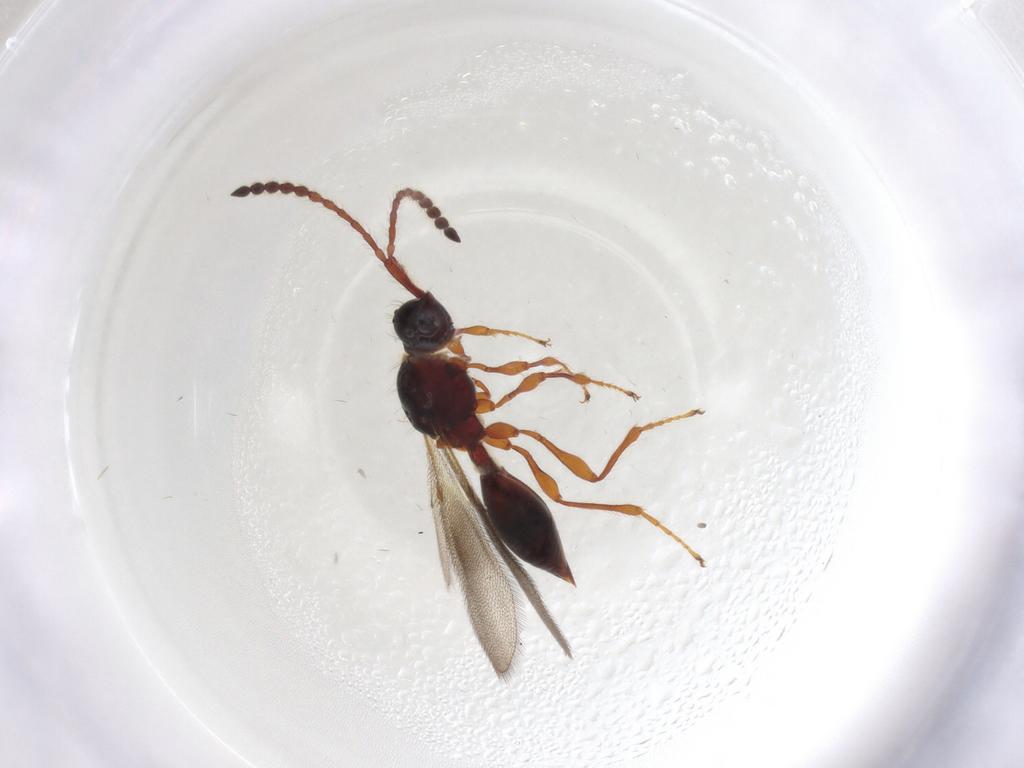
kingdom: Animalia
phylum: Arthropoda
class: Insecta
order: Hymenoptera
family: Diapriidae
